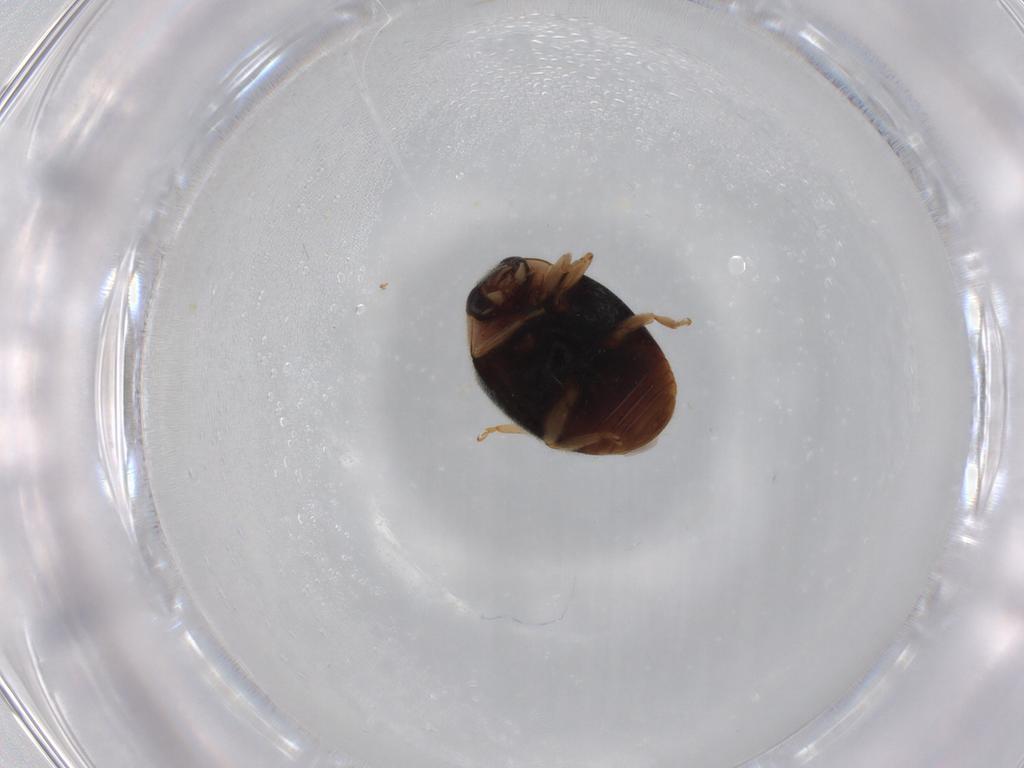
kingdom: Animalia
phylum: Arthropoda
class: Insecta
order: Coleoptera
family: Coccinellidae
